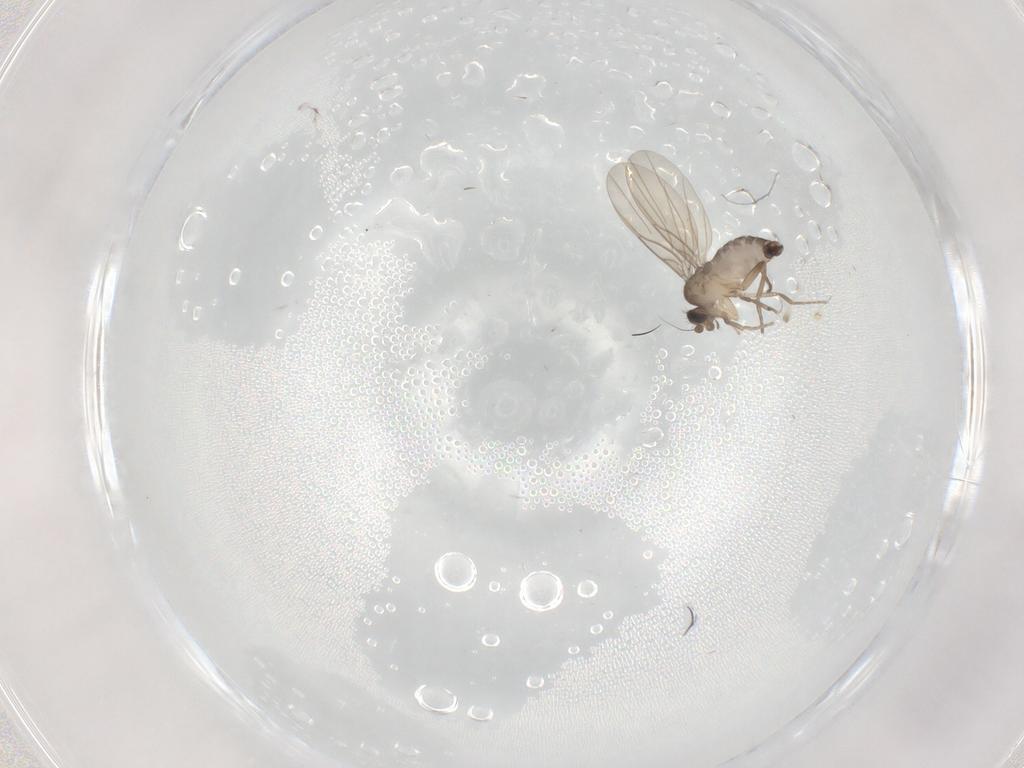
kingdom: Animalia
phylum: Arthropoda
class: Insecta
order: Diptera
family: Phoridae
